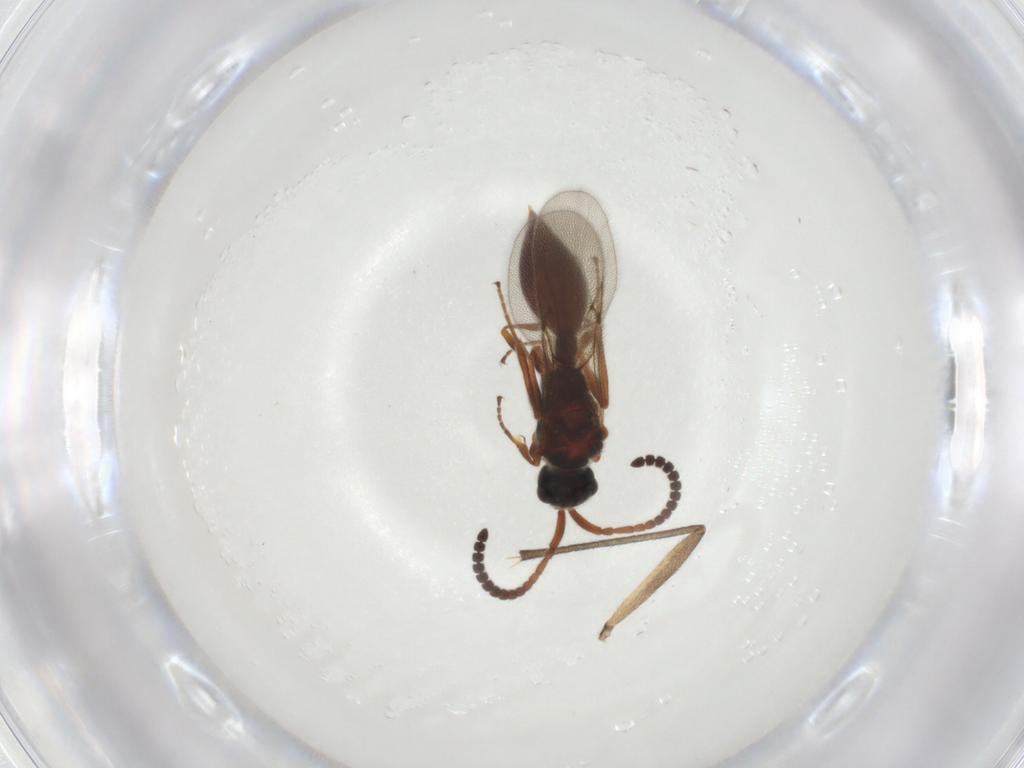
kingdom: Animalia
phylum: Arthropoda
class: Insecta
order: Hymenoptera
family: Diapriidae
